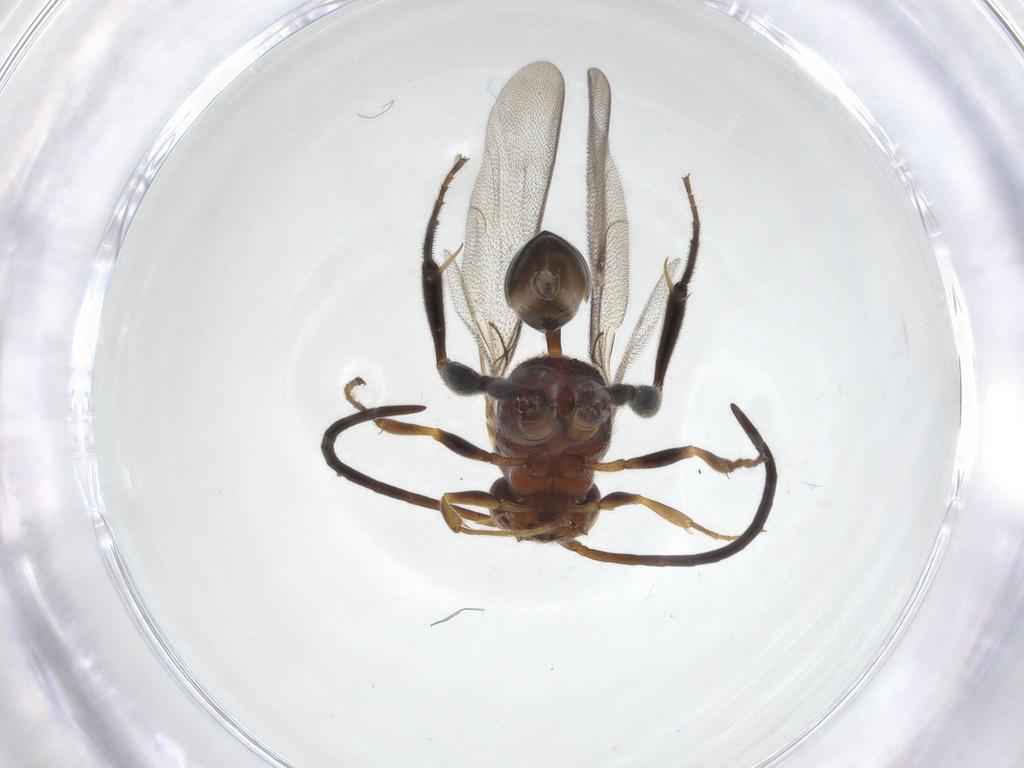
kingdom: Animalia
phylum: Arthropoda
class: Insecta
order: Hymenoptera
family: Evaniidae
